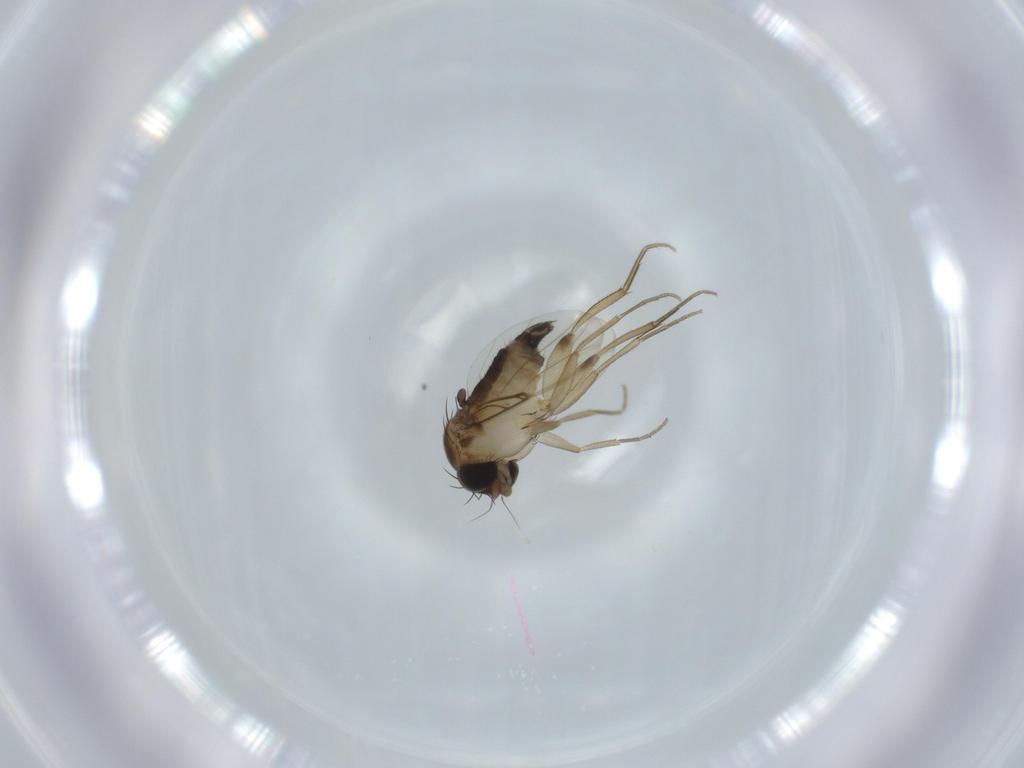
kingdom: Animalia
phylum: Arthropoda
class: Insecta
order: Diptera
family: Phoridae
